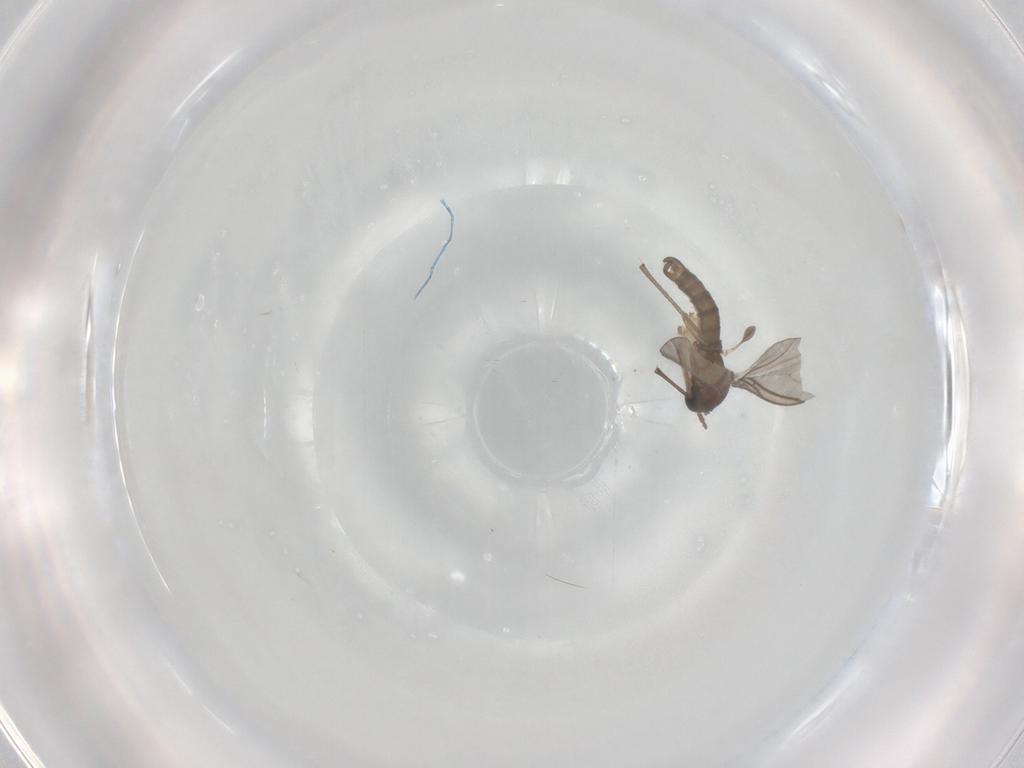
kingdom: Animalia
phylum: Arthropoda
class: Insecta
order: Diptera
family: Sciaridae
